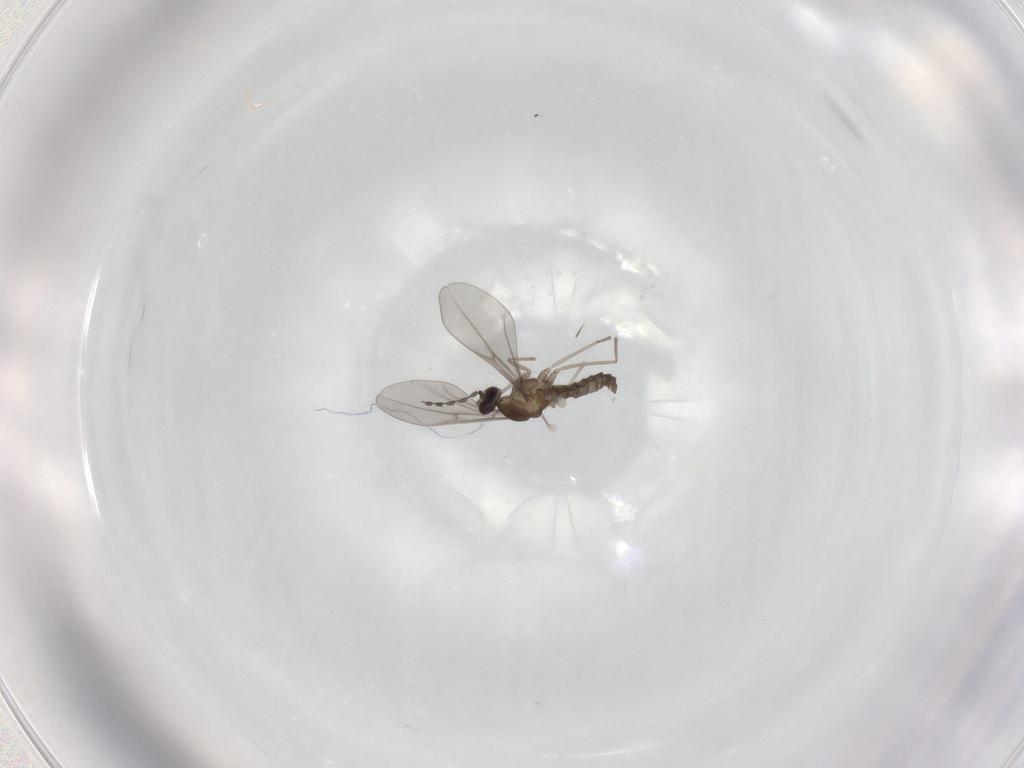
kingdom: Animalia
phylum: Arthropoda
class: Insecta
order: Diptera
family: Cecidomyiidae
